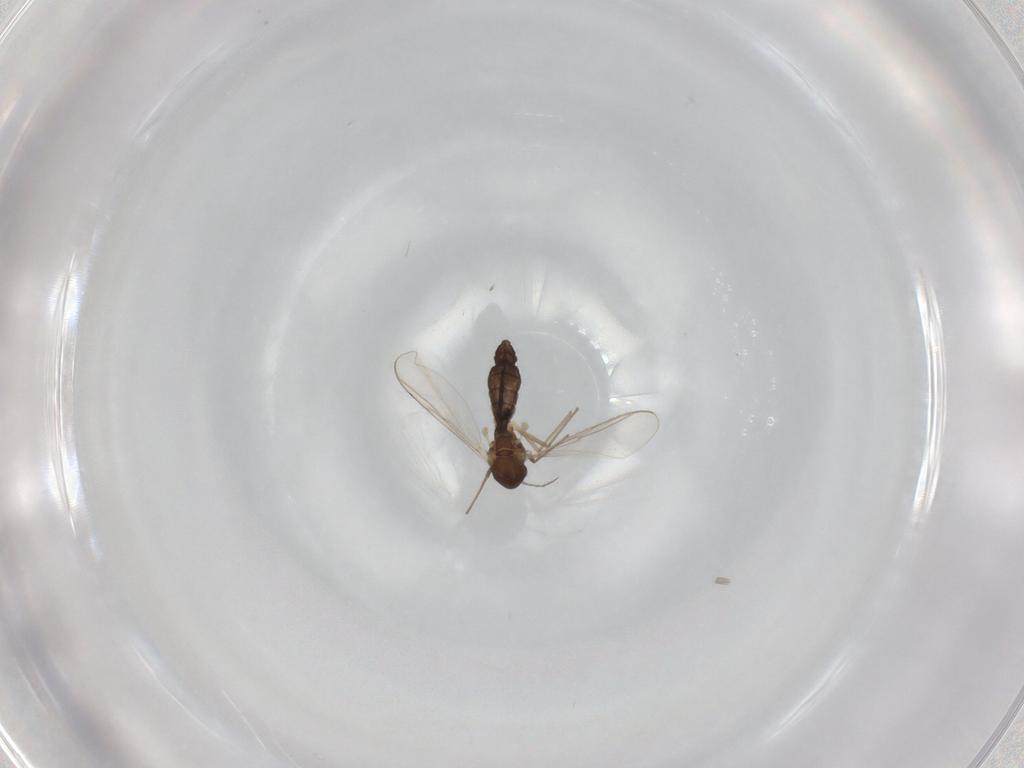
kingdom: Animalia
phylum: Arthropoda
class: Insecta
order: Diptera
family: Chironomidae
